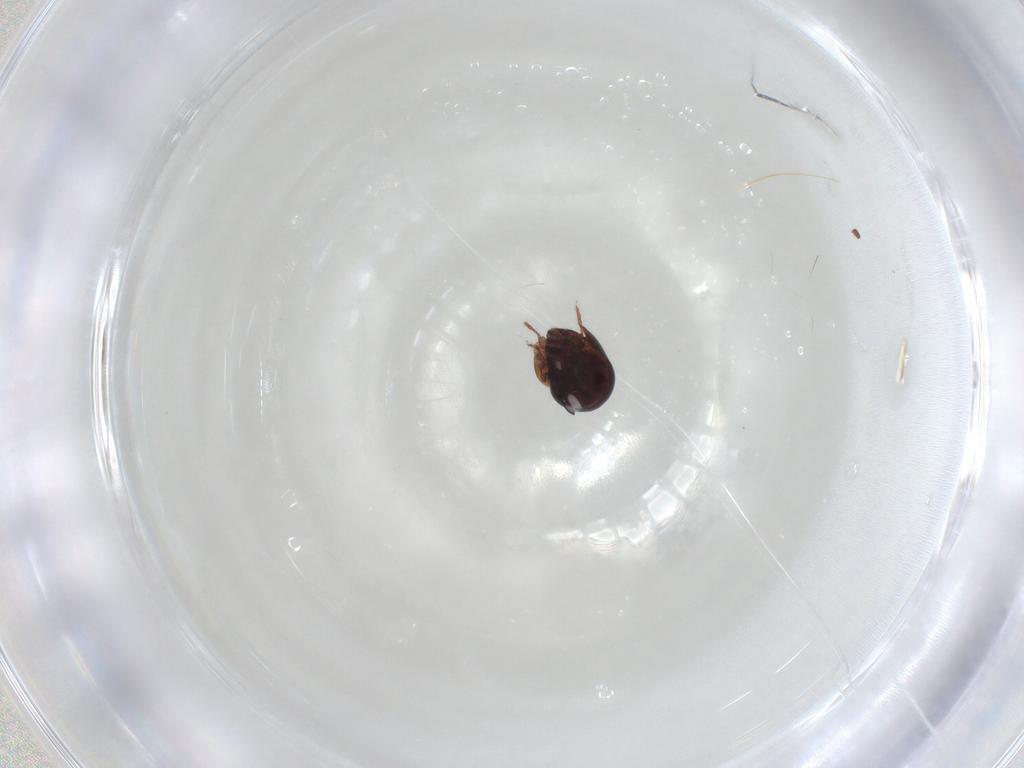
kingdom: Animalia
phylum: Arthropoda
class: Arachnida
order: Sarcoptiformes
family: Galumnidae
